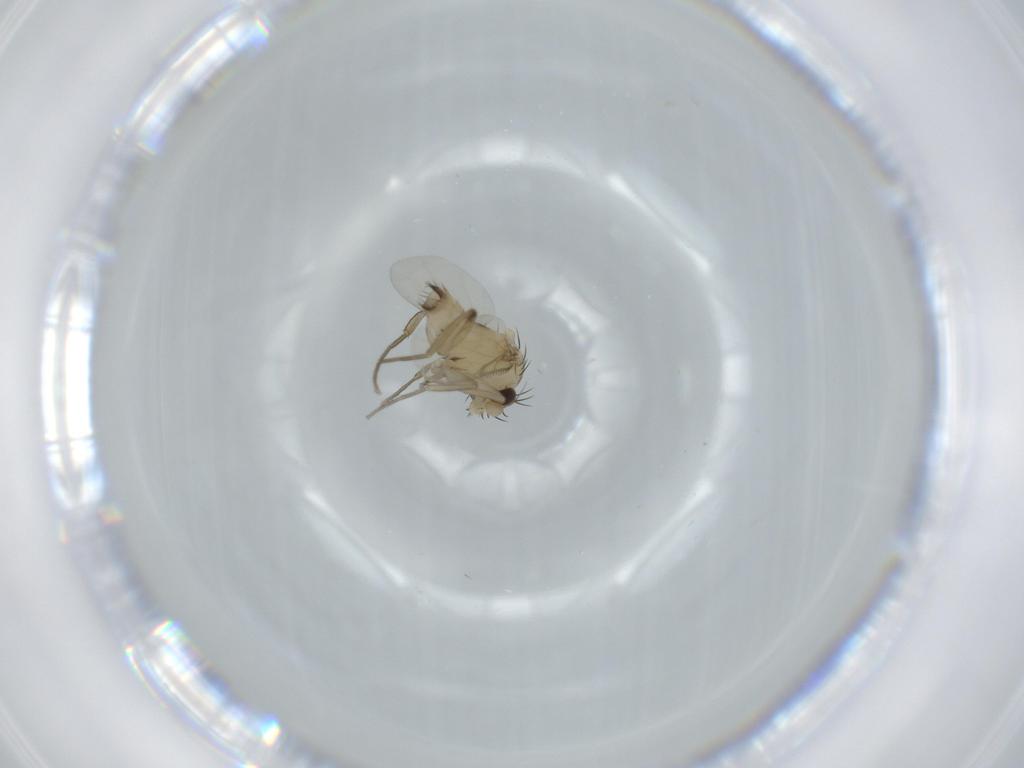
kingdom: Animalia
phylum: Arthropoda
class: Insecta
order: Diptera
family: Phoridae
